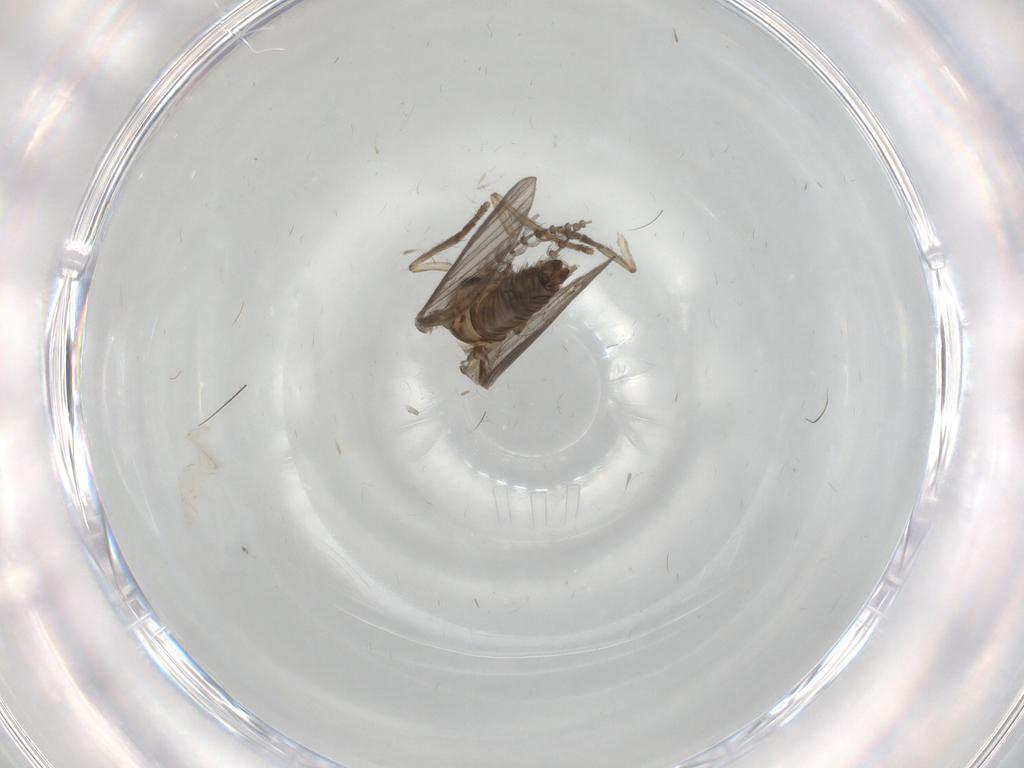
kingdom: Animalia
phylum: Arthropoda
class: Insecta
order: Diptera
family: Psychodidae
